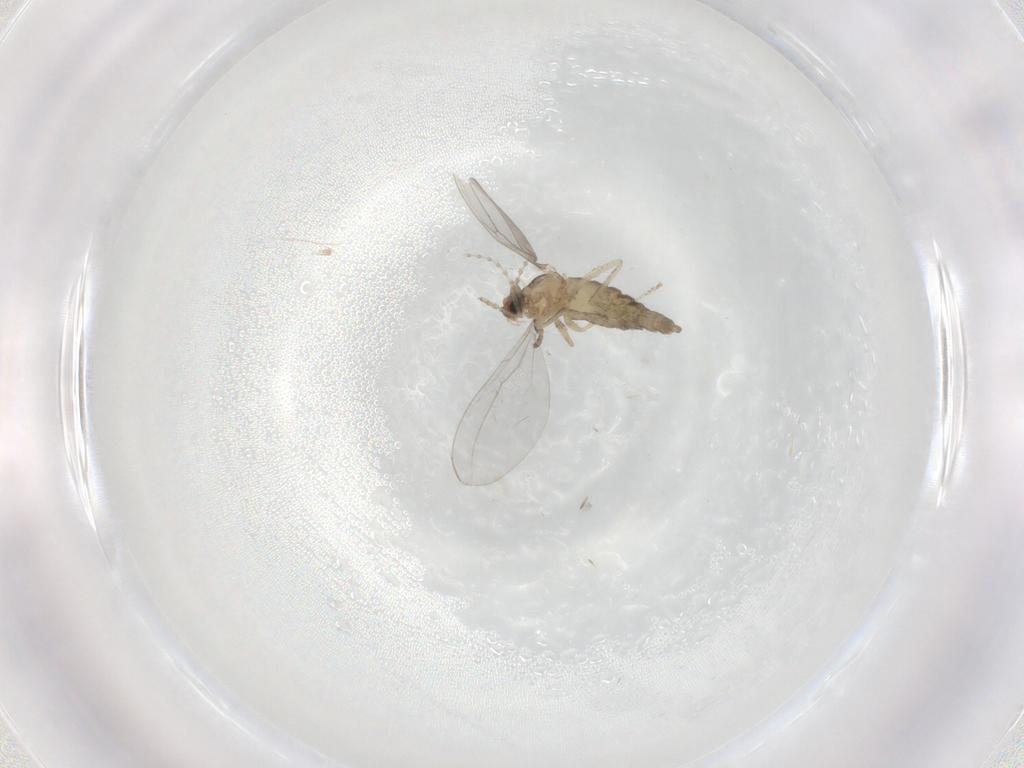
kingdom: Animalia
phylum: Arthropoda
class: Insecta
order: Diptera
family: Cecidomyiidae
